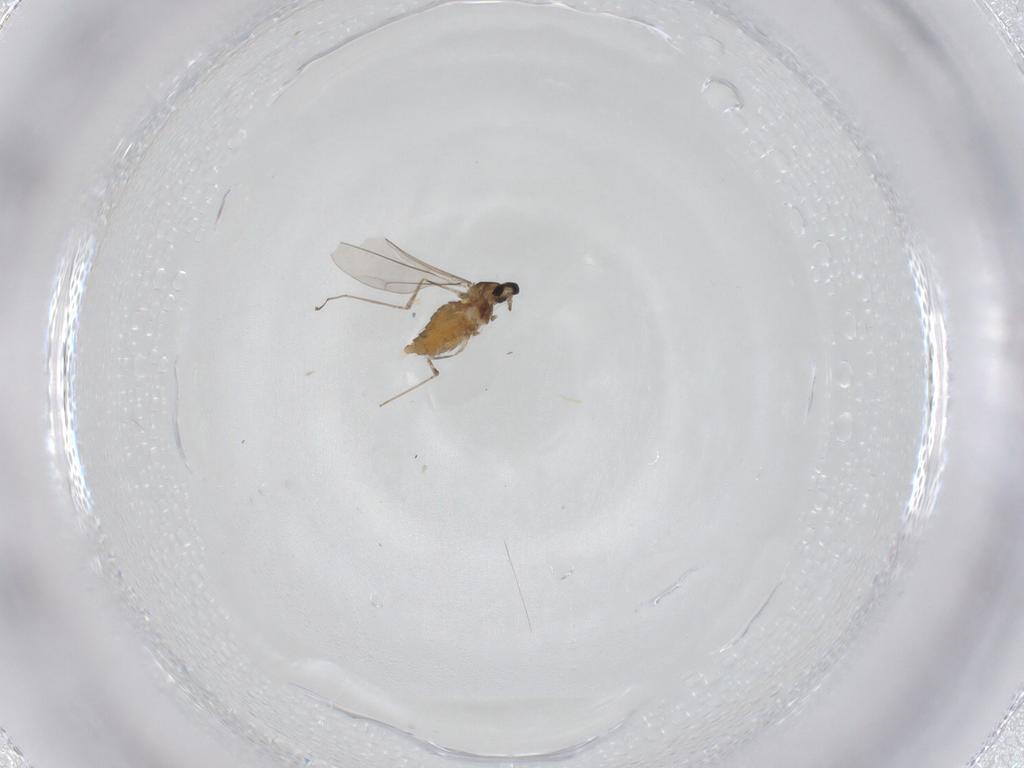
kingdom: Animalia
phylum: Arthropoda
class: Insecta
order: Diptera
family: Cecidomyiidae
